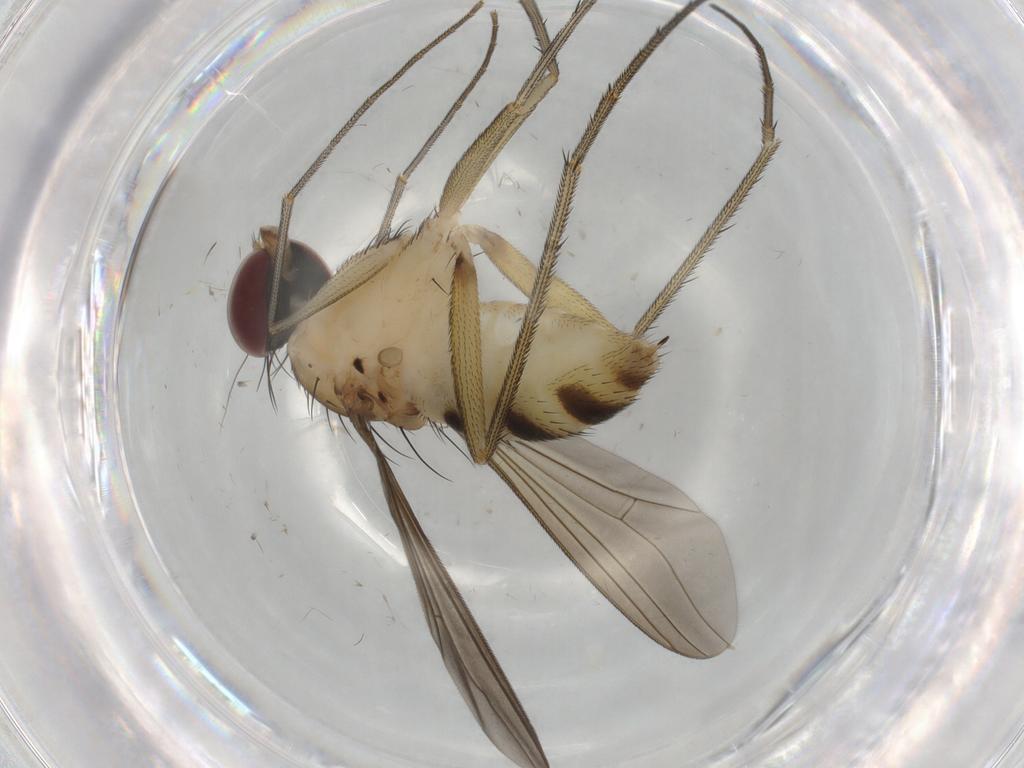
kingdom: Animalia
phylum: Arthropoda
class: Insecta
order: Diptera
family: Dolichopodidae
